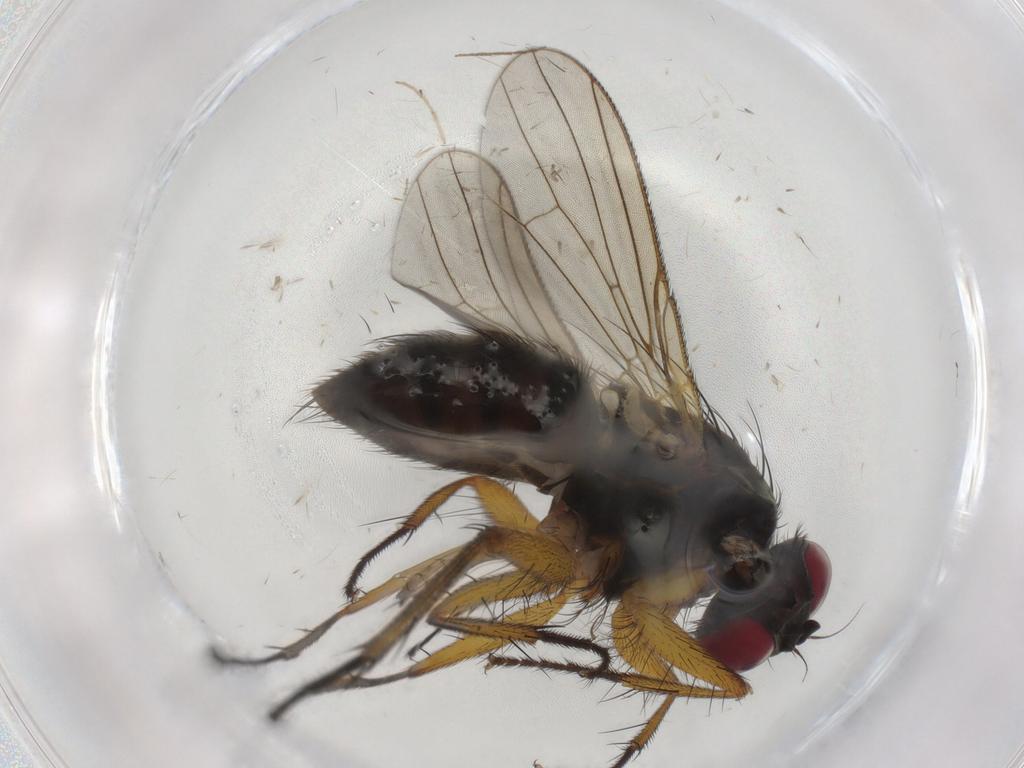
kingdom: Animalia
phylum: Arthropoda
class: Insecta
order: Diptera
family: Muscidae
